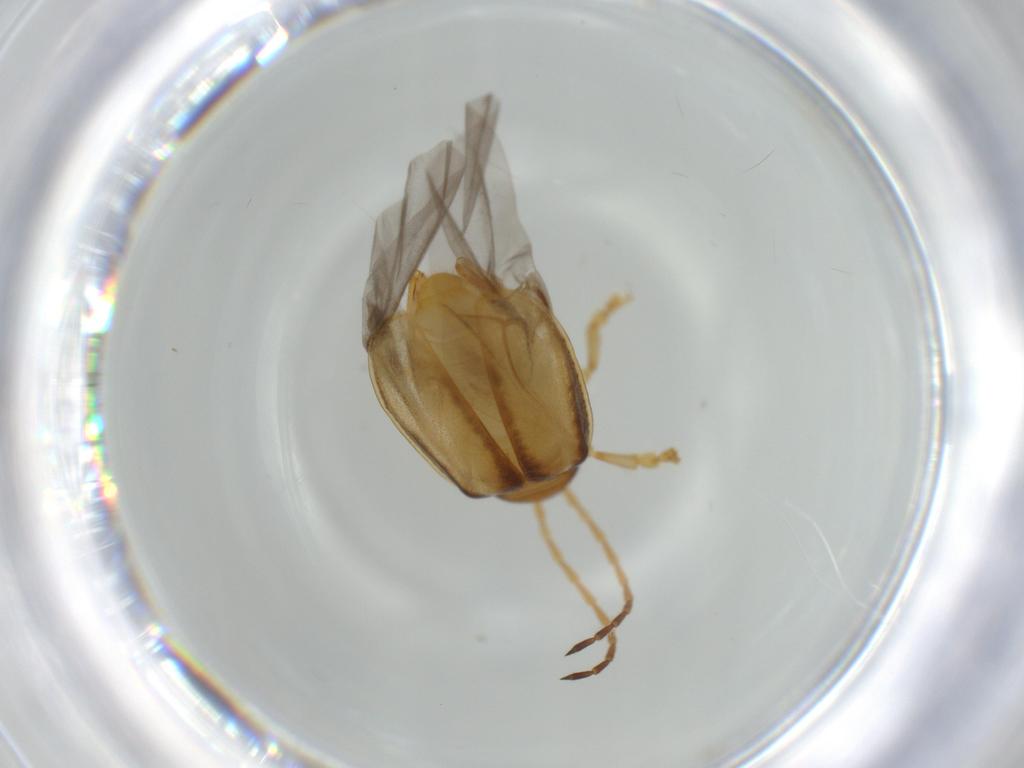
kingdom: Animalia
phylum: Arthropoda
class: Insecta
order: Coleoptera
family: Chrysomelidae
